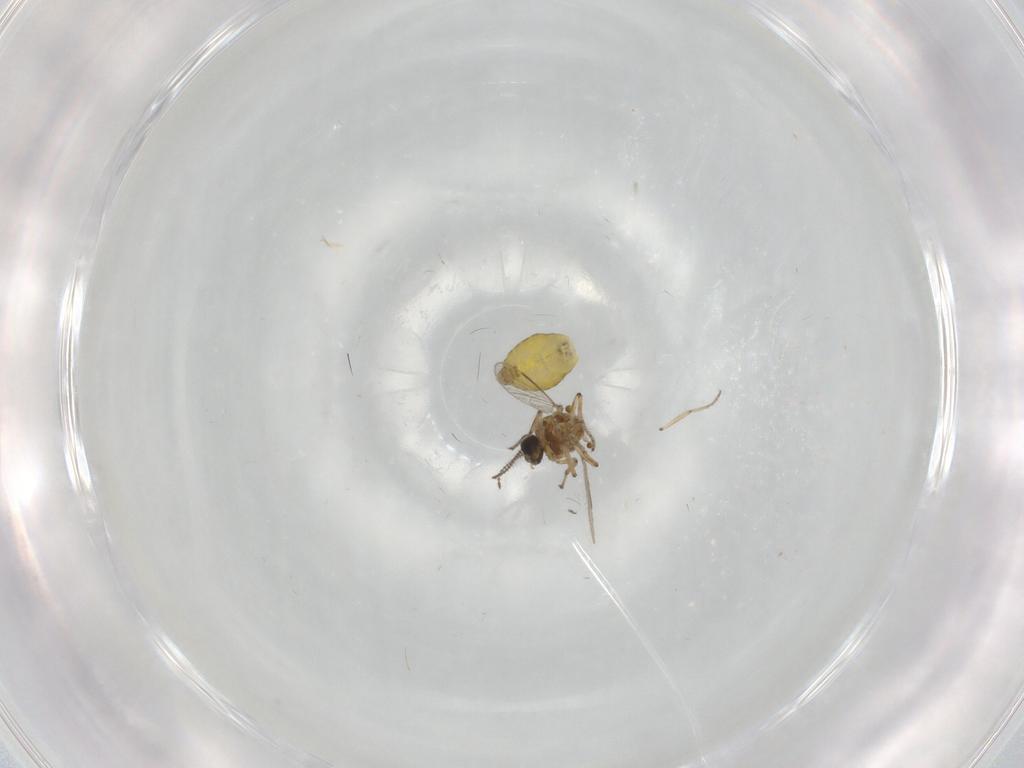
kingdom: Animalia
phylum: Arthropoda
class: Insecta
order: Diptera
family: Ceratopogonidae
